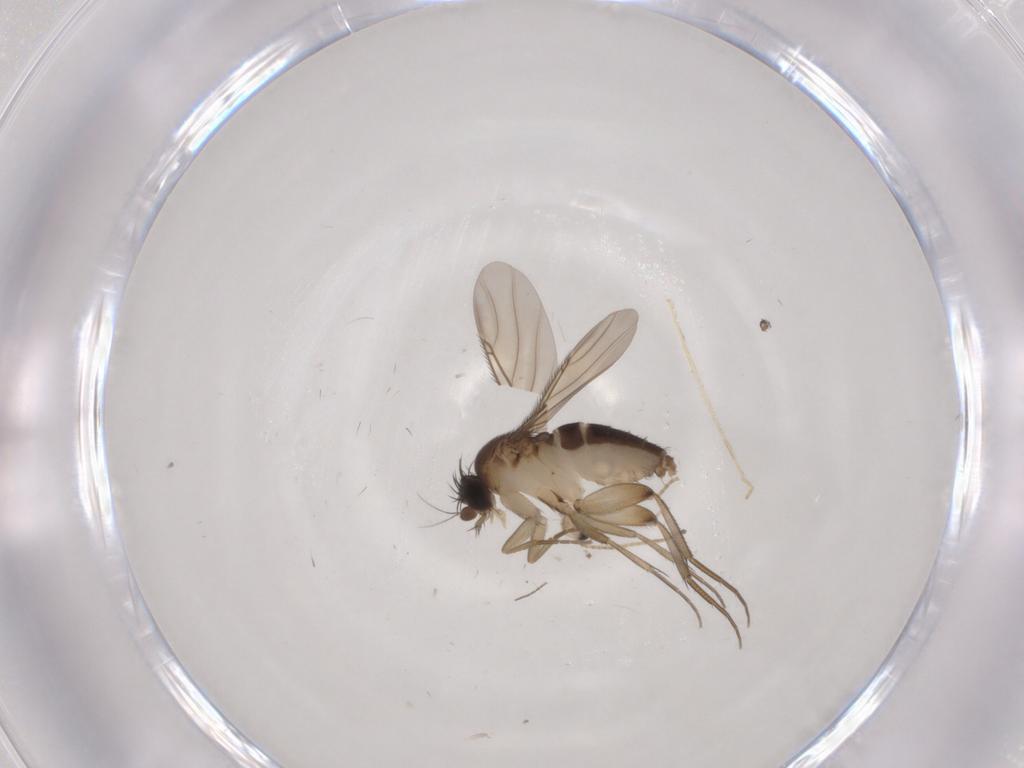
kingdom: Animalia
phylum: Arthropoda
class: Insecta
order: Diptera
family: Phoridae
